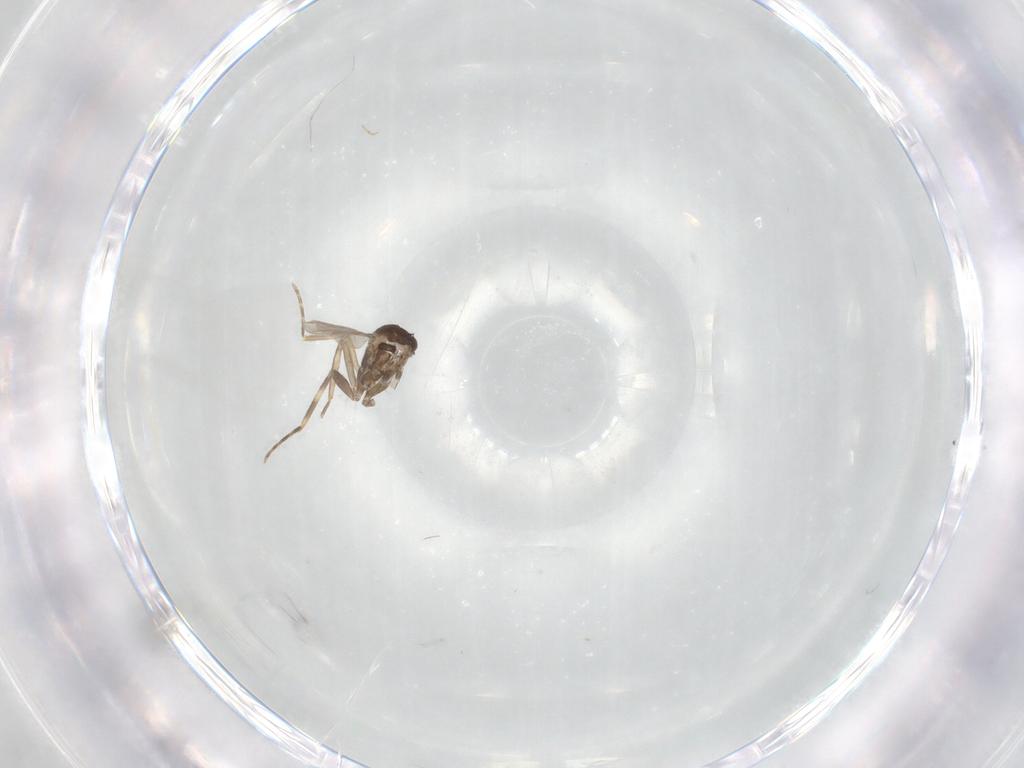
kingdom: Animalia
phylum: Arthropoda
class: Insecta
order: Diptera
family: Ceratopogonidae
